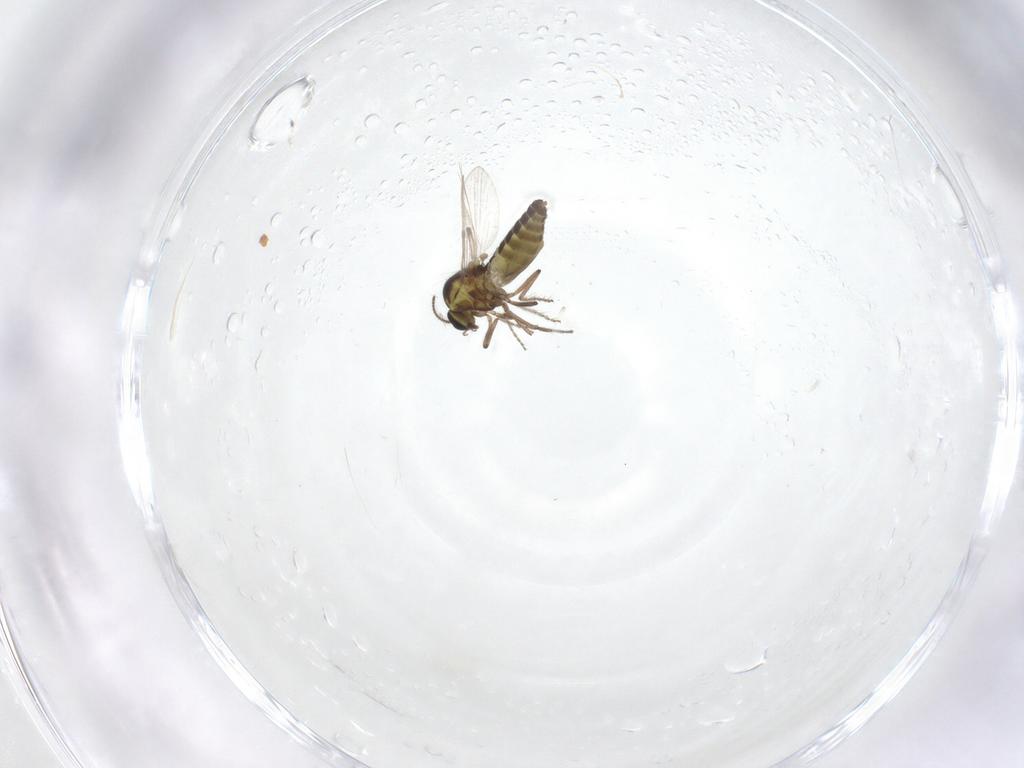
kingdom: Animalia
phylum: Arthropoda
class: Insecta
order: Diptera
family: Ceratopogonidae
